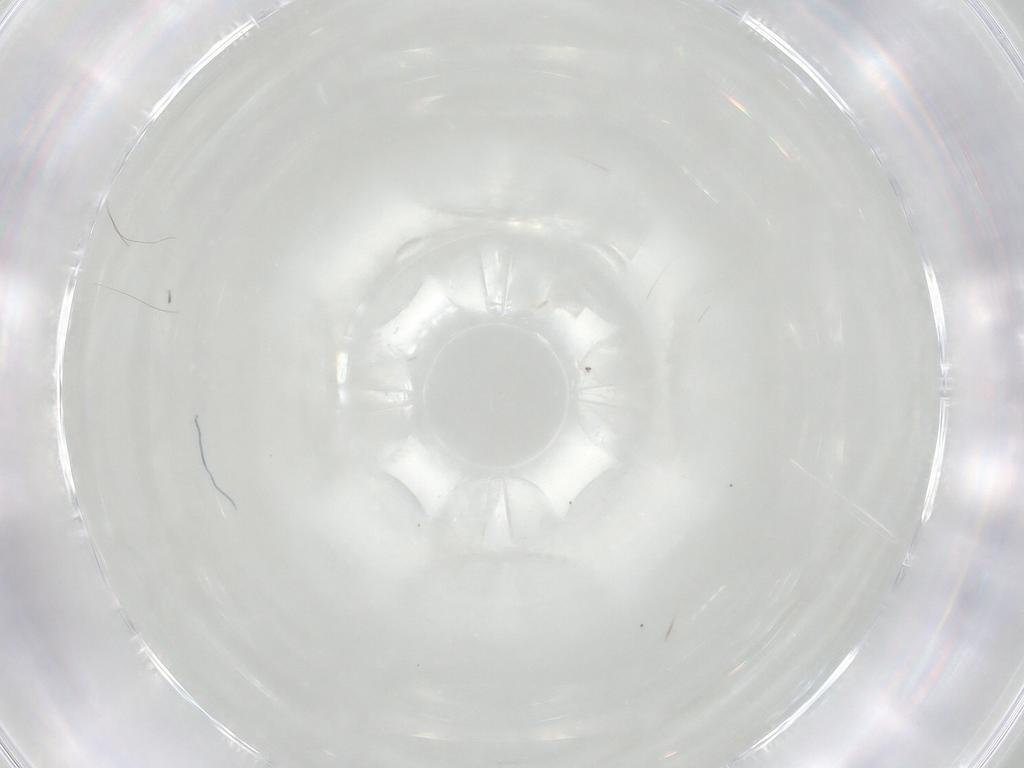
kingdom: Animalia
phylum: Arthropoda
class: Insecta
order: Hemiptera
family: Aleyrodidae
